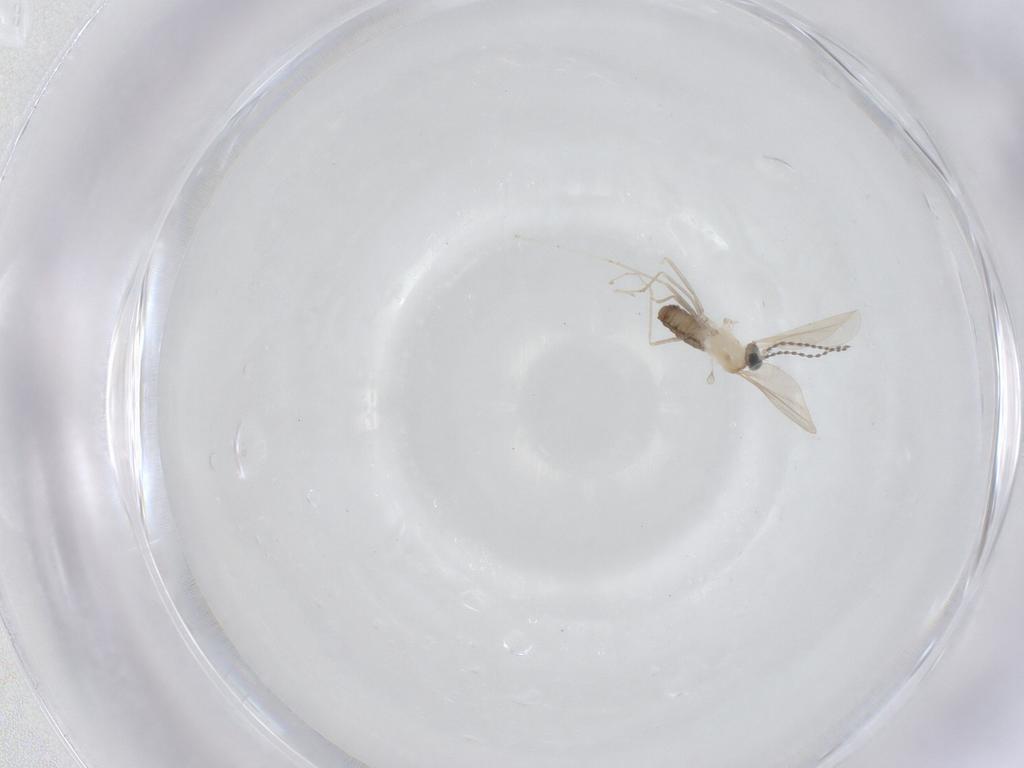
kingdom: Animalia
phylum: Arthropoda
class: Insecta
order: Diptera
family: Cecidomyiidae
